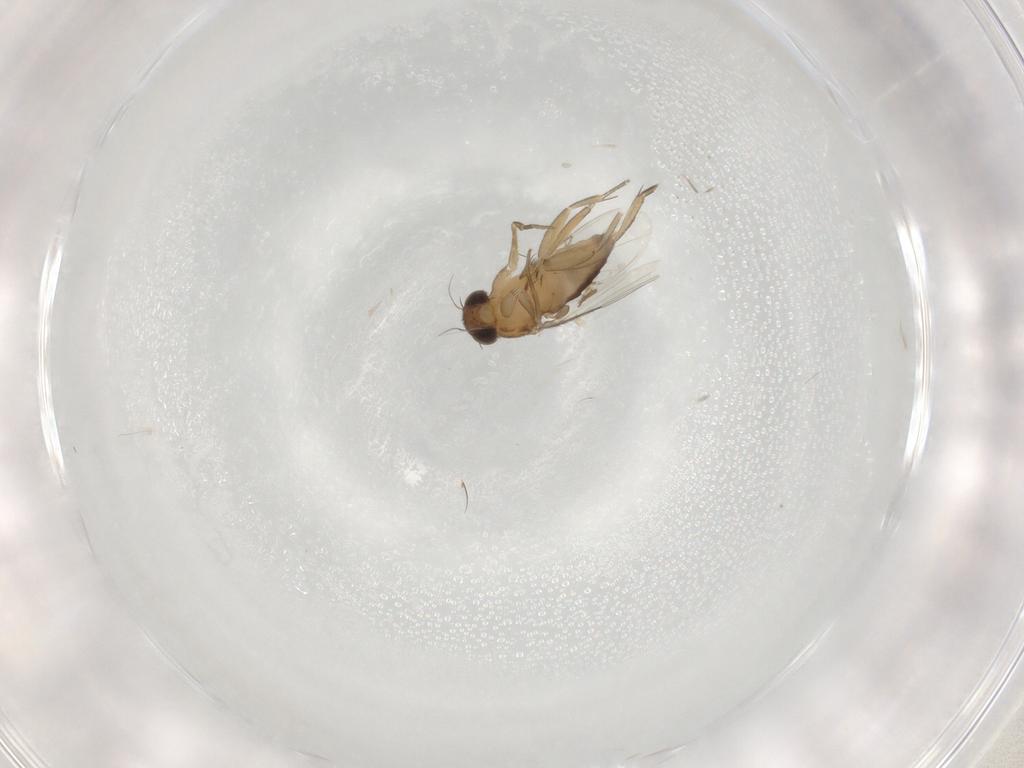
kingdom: Animalia
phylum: Arthropoda
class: Insecta
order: Diptera
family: Phoridae
